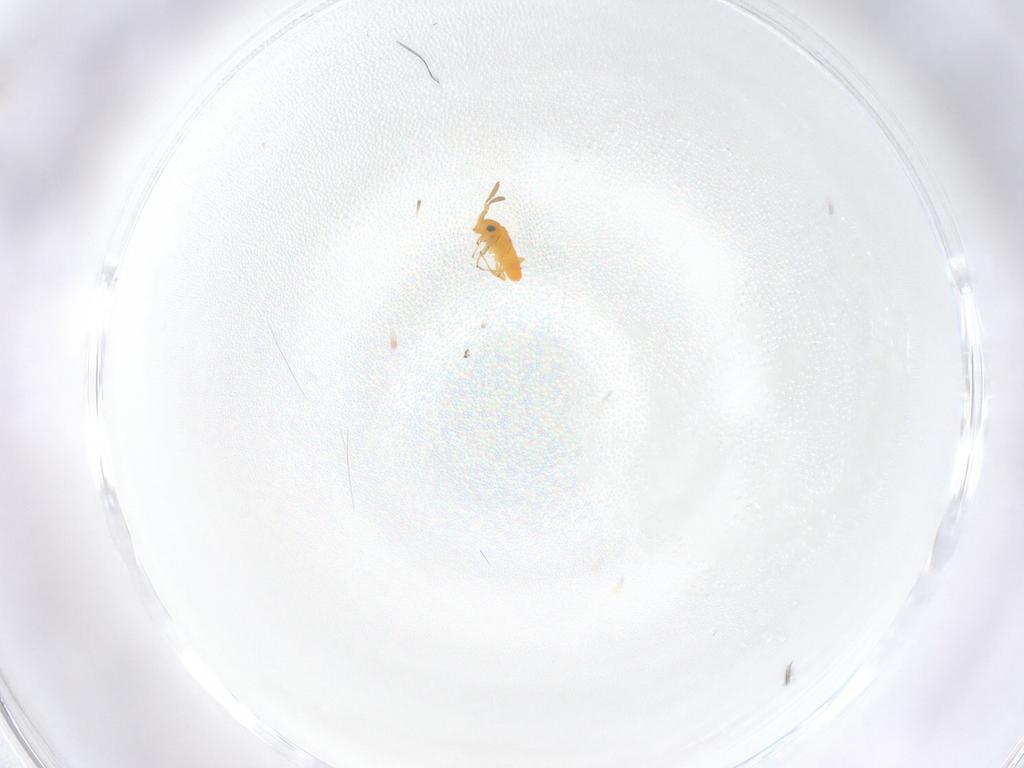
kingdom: Animalia
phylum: Arthropoda
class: Insecta
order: Hymenoptera
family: Encyrtidae
